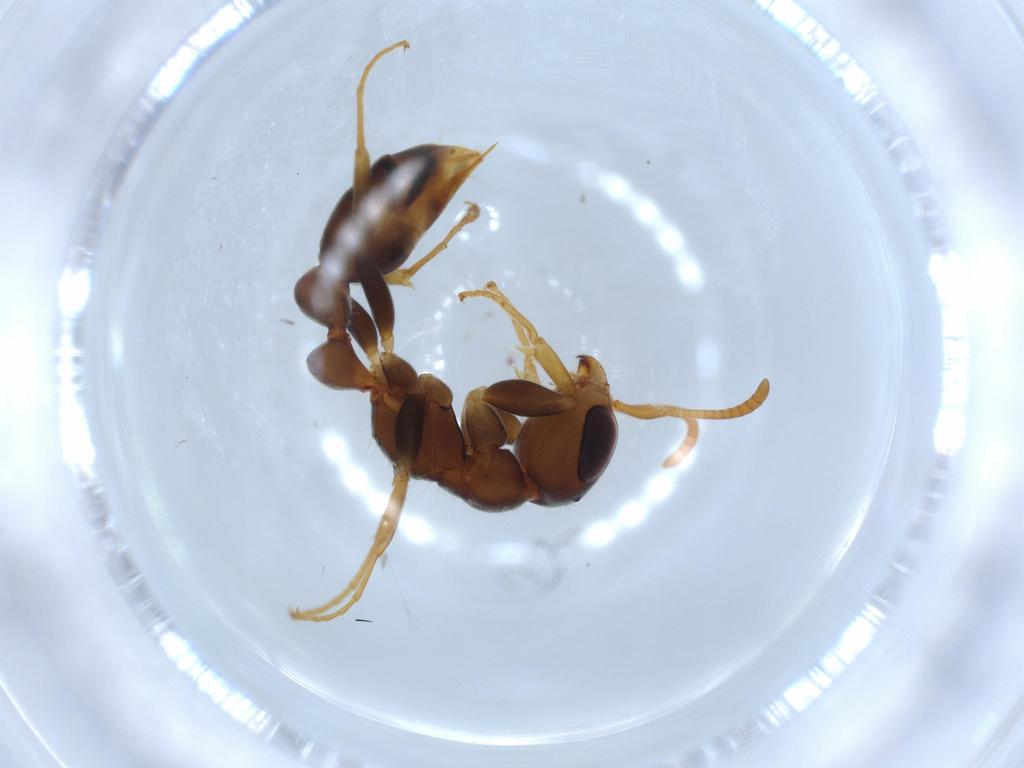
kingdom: Animalia
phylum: Arthropoda
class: Insecta
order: Hymenoptera
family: Formicidae
